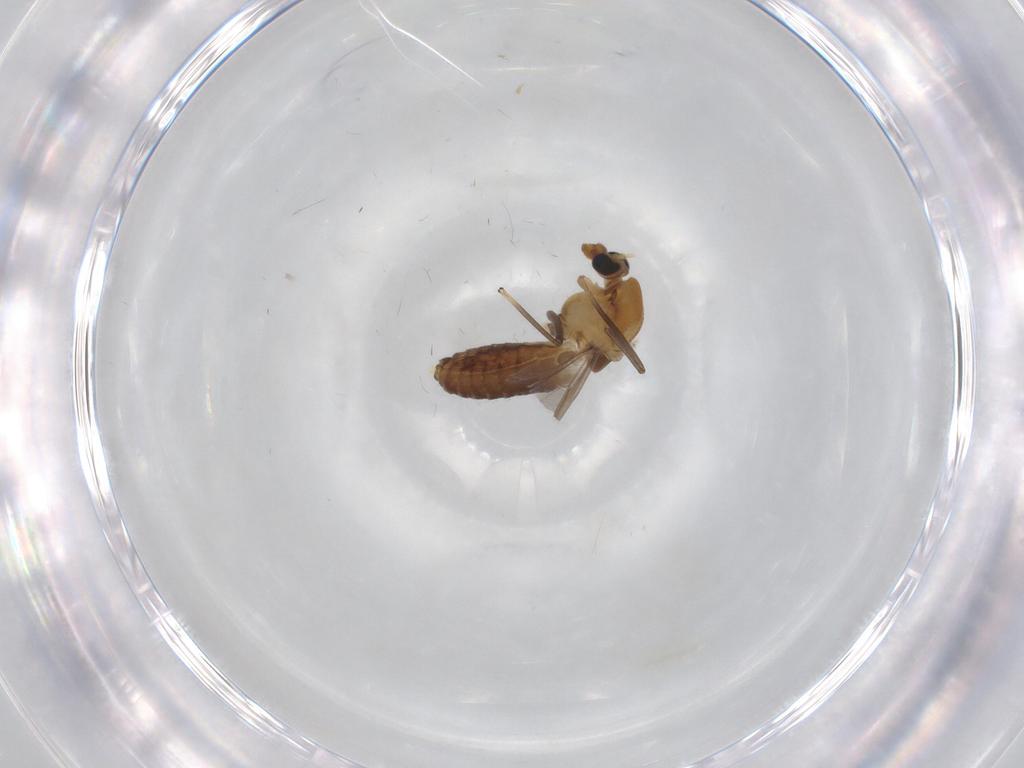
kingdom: Animalia
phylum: Arthropoda
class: Insecta
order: Diptera
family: Chironomidae
